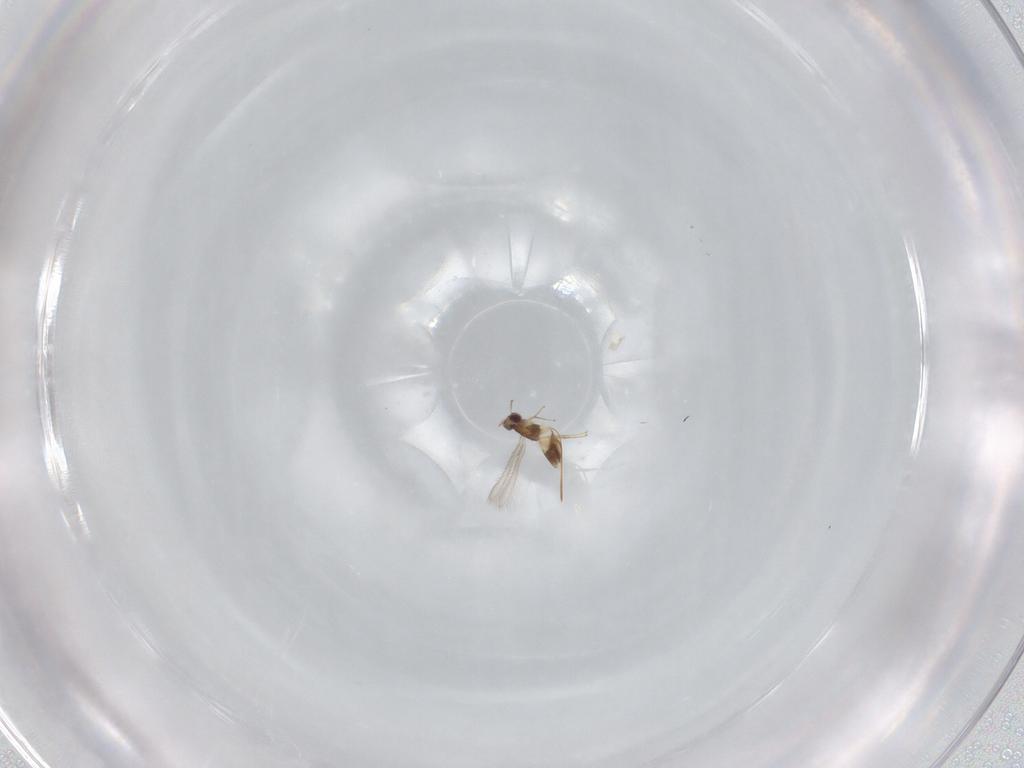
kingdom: Animalia
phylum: Arthropoda
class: Insecta
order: Hymenoptera
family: Mymaridae
